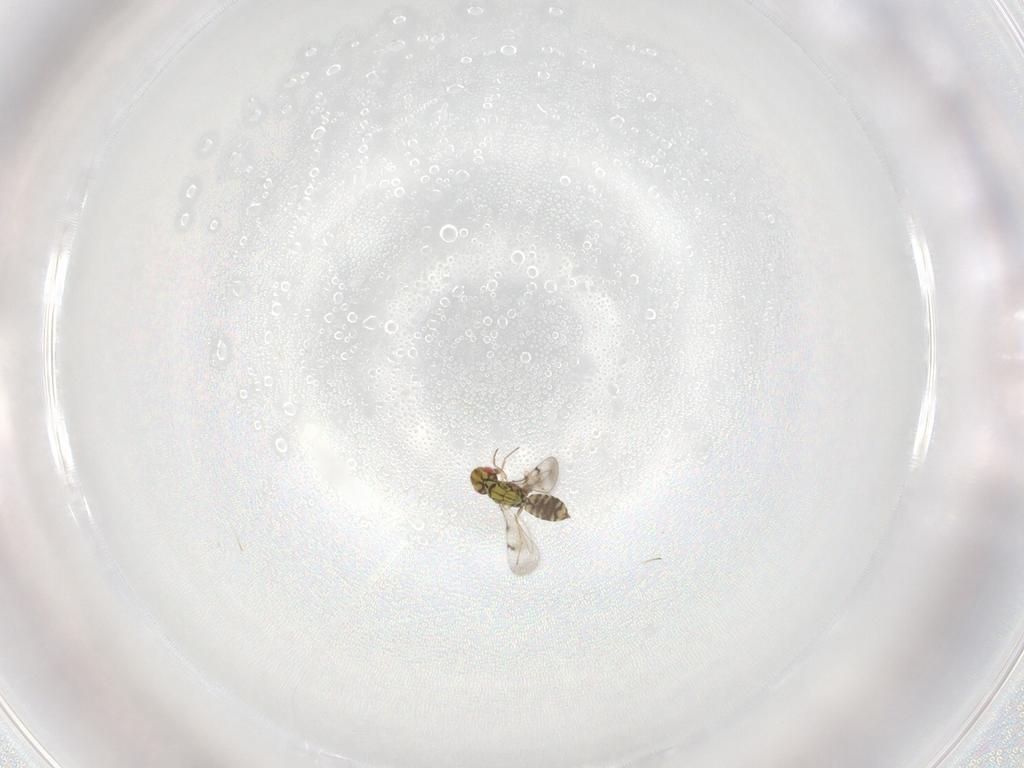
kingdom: Animalia
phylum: Arthropoda
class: Insecta
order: Hymenoptera
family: Eulophidae
